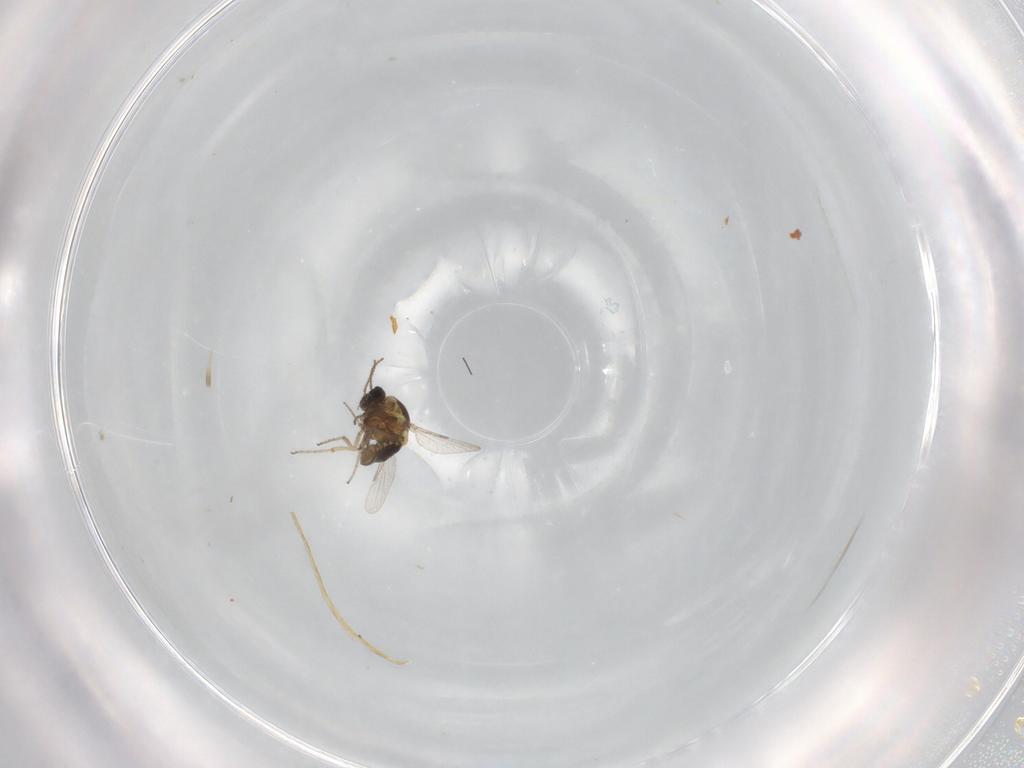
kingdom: Animalia
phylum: Arthropoda
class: Insecta
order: Diptera
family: Ceratopogonidae
